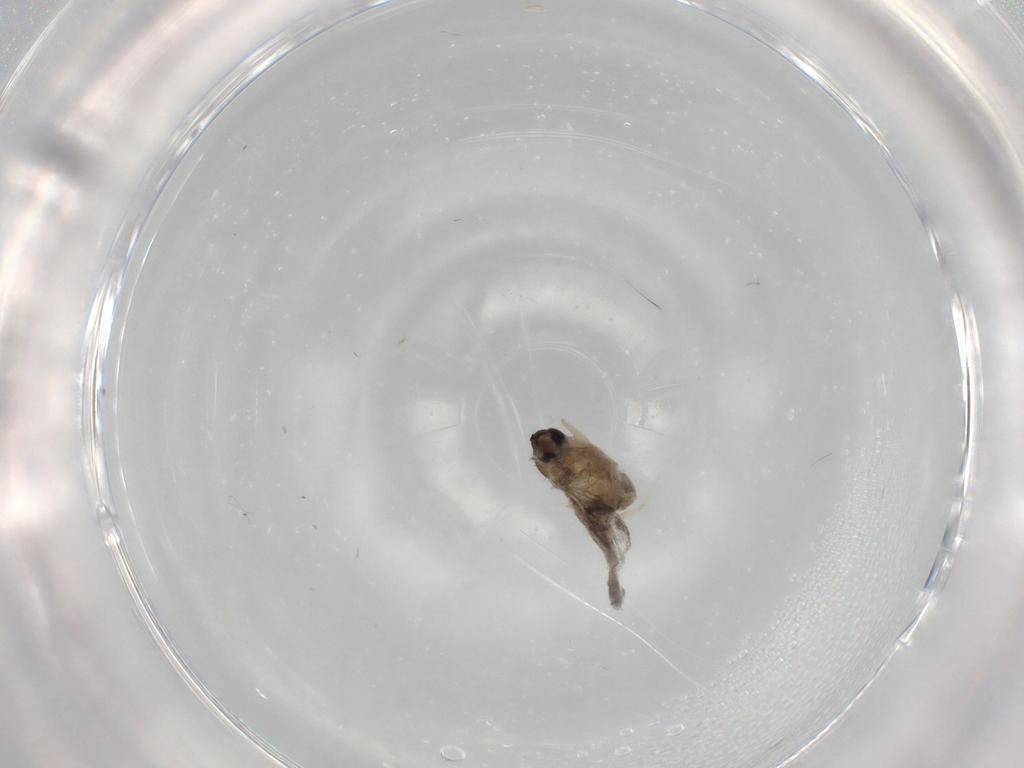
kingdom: Animalia
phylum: Arthropoda
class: Insecta
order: Diptera
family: Cecidomyiidae
